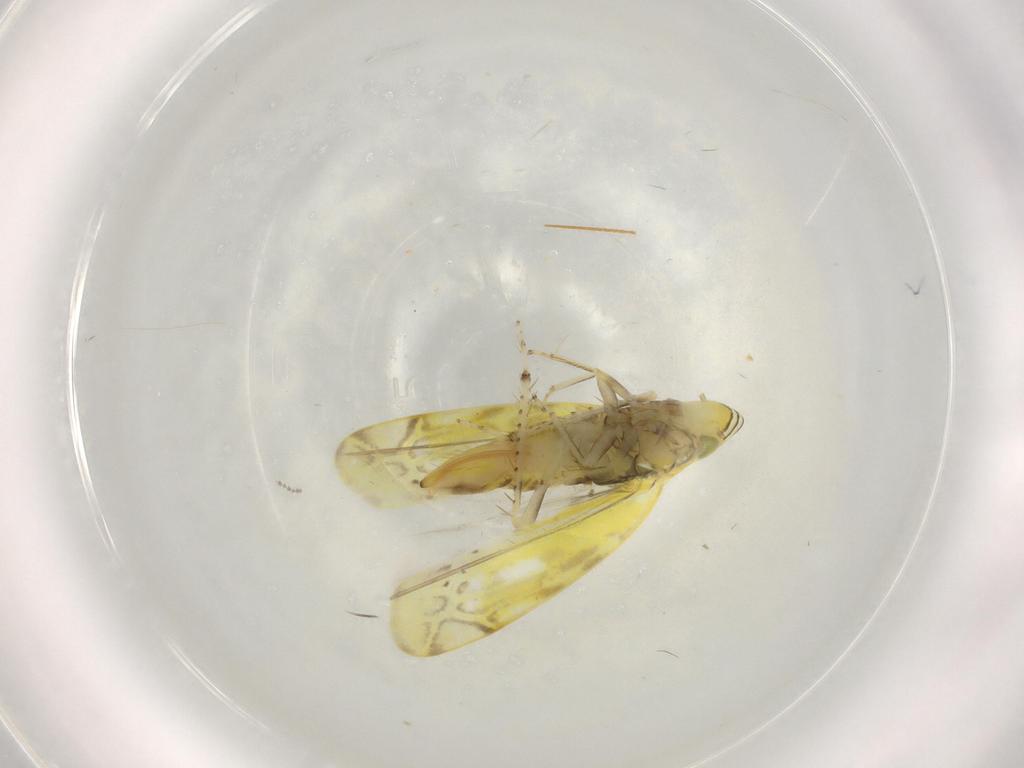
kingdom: Animalia
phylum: Arthropoda
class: Insecta
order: Hemiptera
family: Cicadellidae
